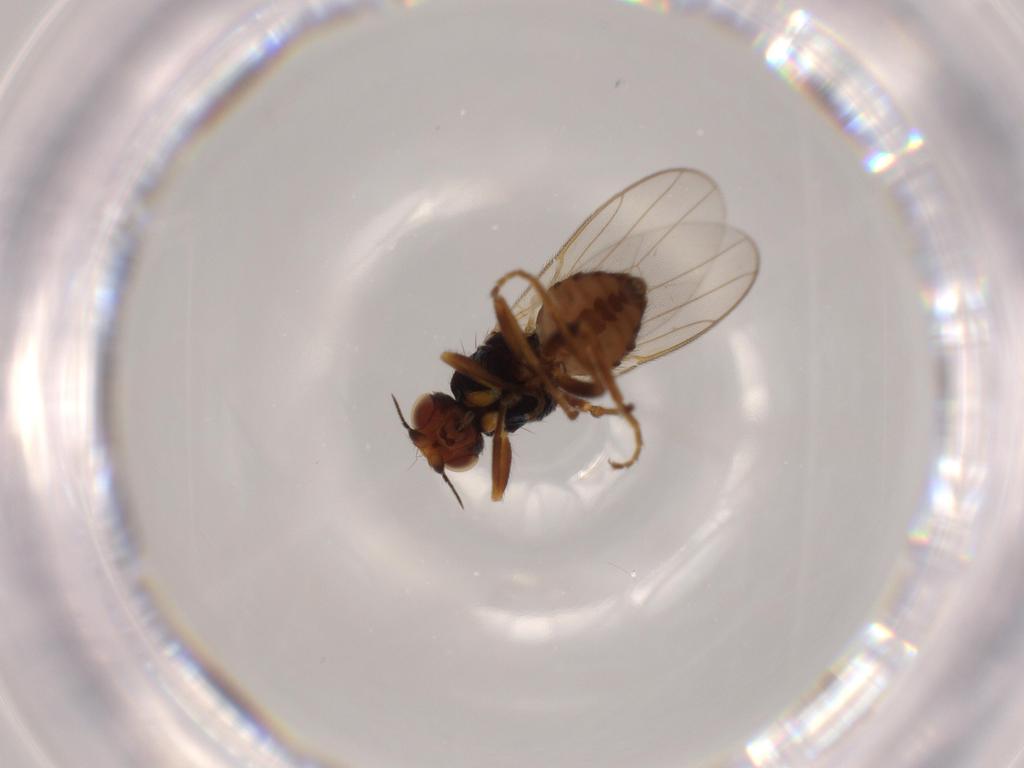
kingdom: Animalia
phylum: Arthropoda
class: Insecta
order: Diptera
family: Chloropidae
